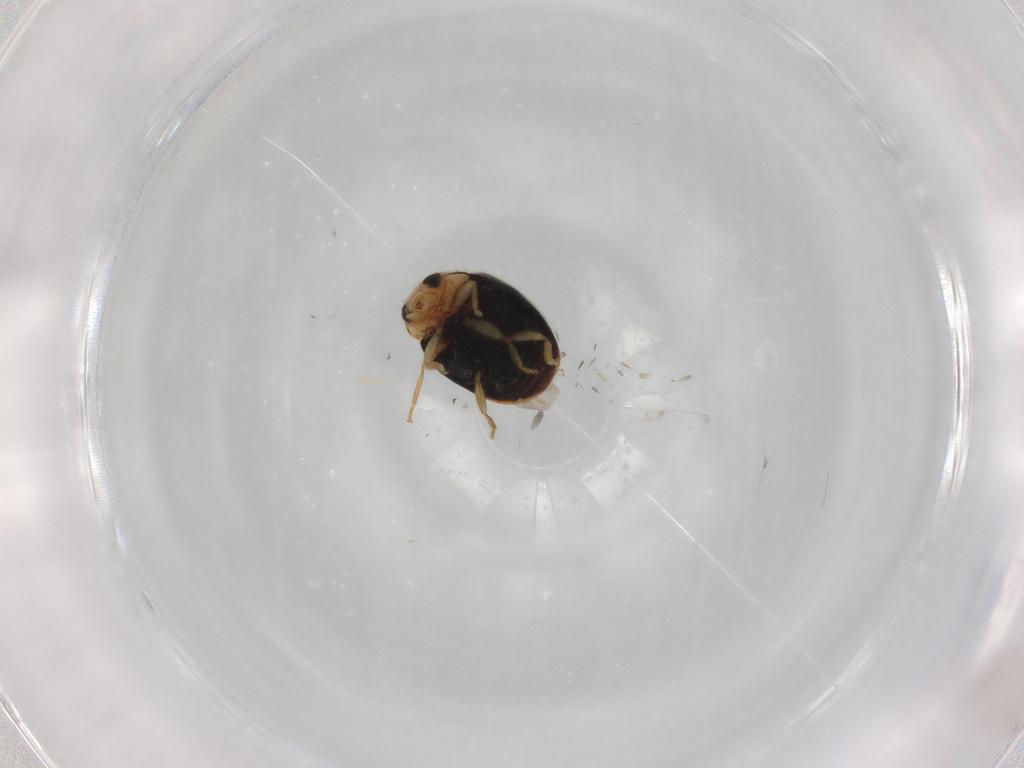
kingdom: Animalia
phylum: Arthropoda
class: Insecta
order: Coleoptera
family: Coccinellidae
